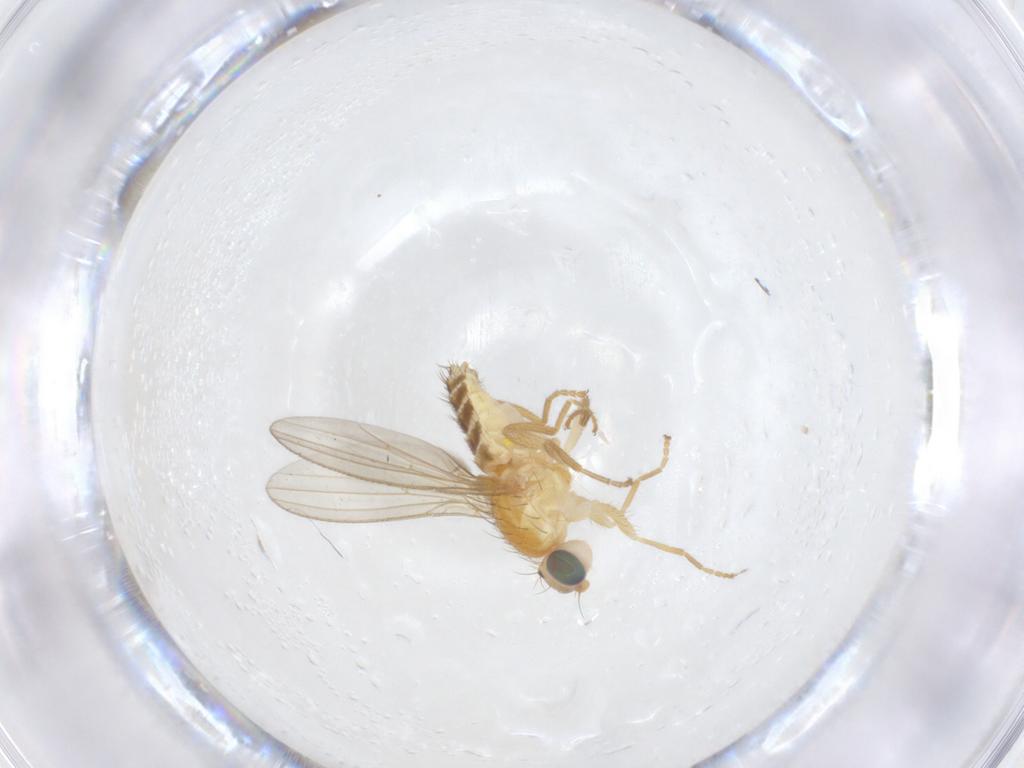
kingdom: Animalia
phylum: Arthropoda
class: Insecta
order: Diptera
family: Chyromyidae
